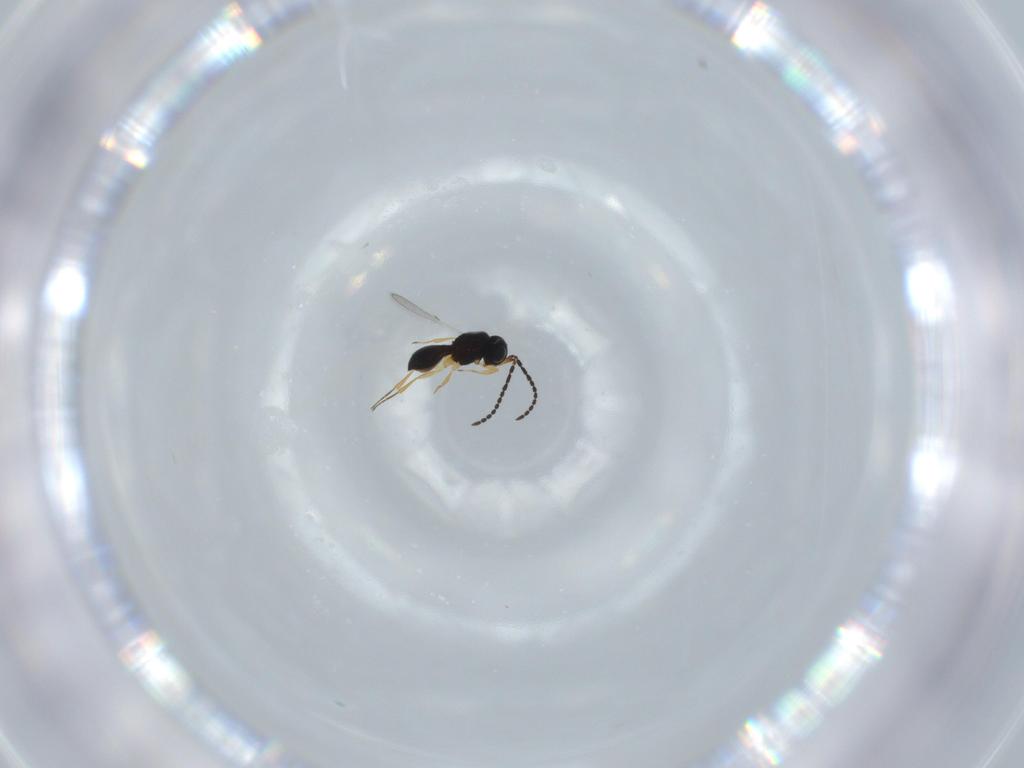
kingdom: Animalia
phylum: Arthropoda
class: Insecta
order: Hymenoptera
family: Scelionidae
